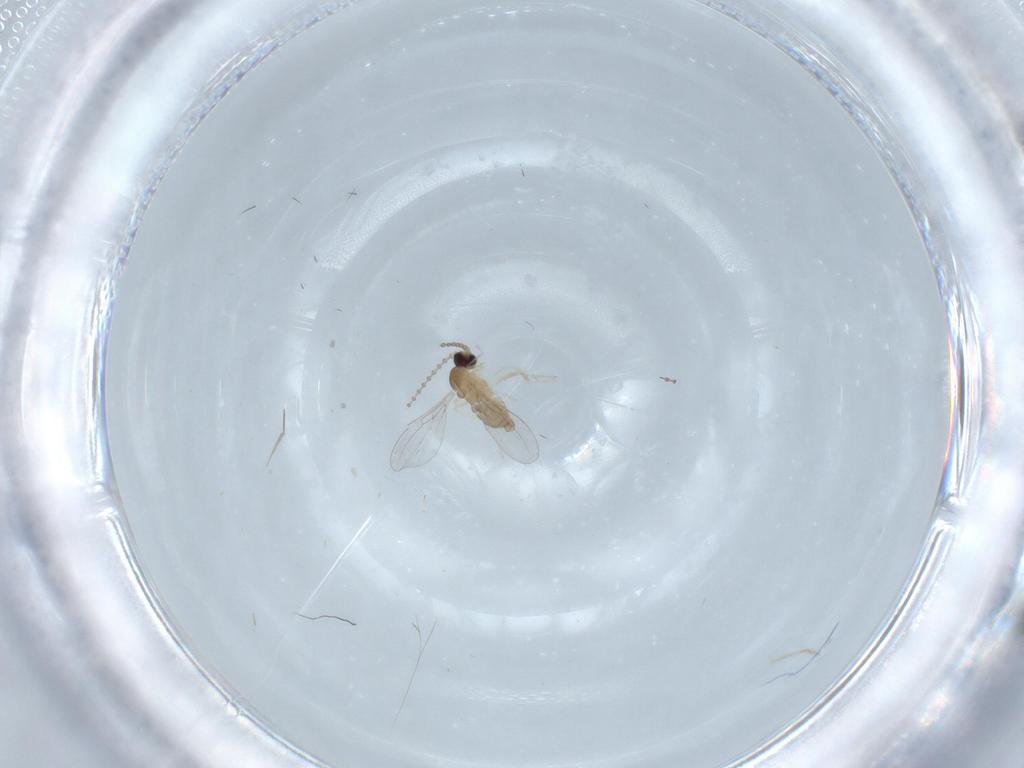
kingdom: Animalia
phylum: Arthropoda
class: Insecta
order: Diptera
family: Cecidomyiidae
